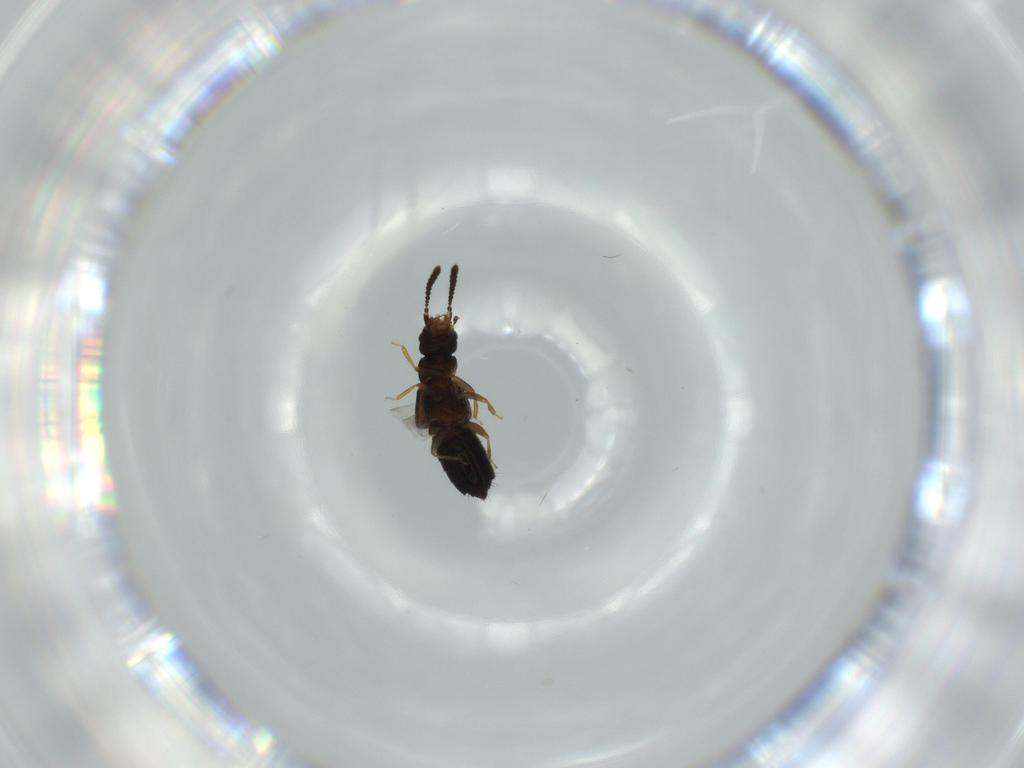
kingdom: Animalia
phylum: Arthropoda
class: Insecta
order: Coleoptera
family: Staphylinidae
